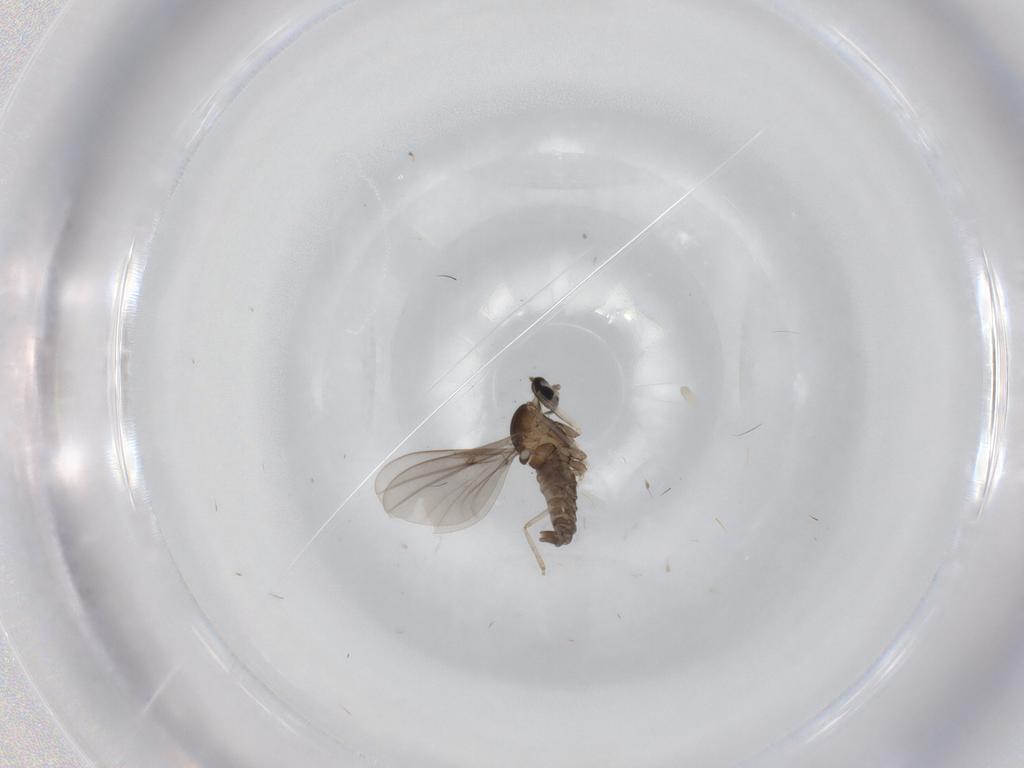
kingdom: Animalia
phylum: Arthropoda
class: Insecta
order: Diptera
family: Cecidomyiidae
